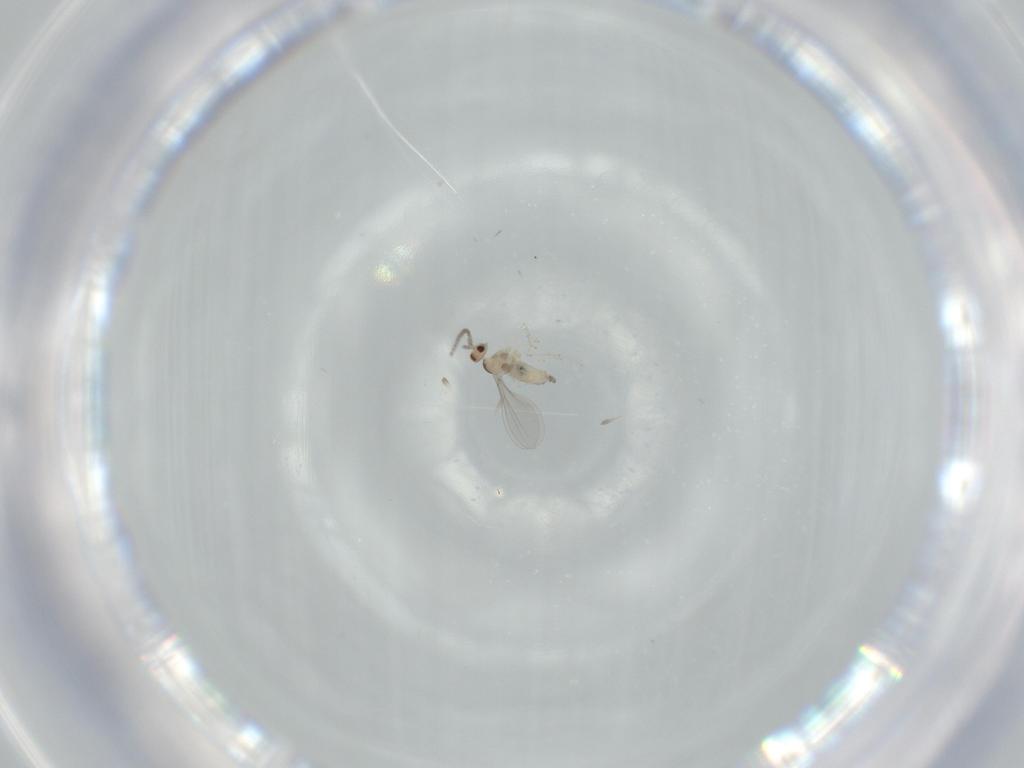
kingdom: Animalia
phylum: Arthropoda
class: Insecta
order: Diptera
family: Cecidomyiidae
